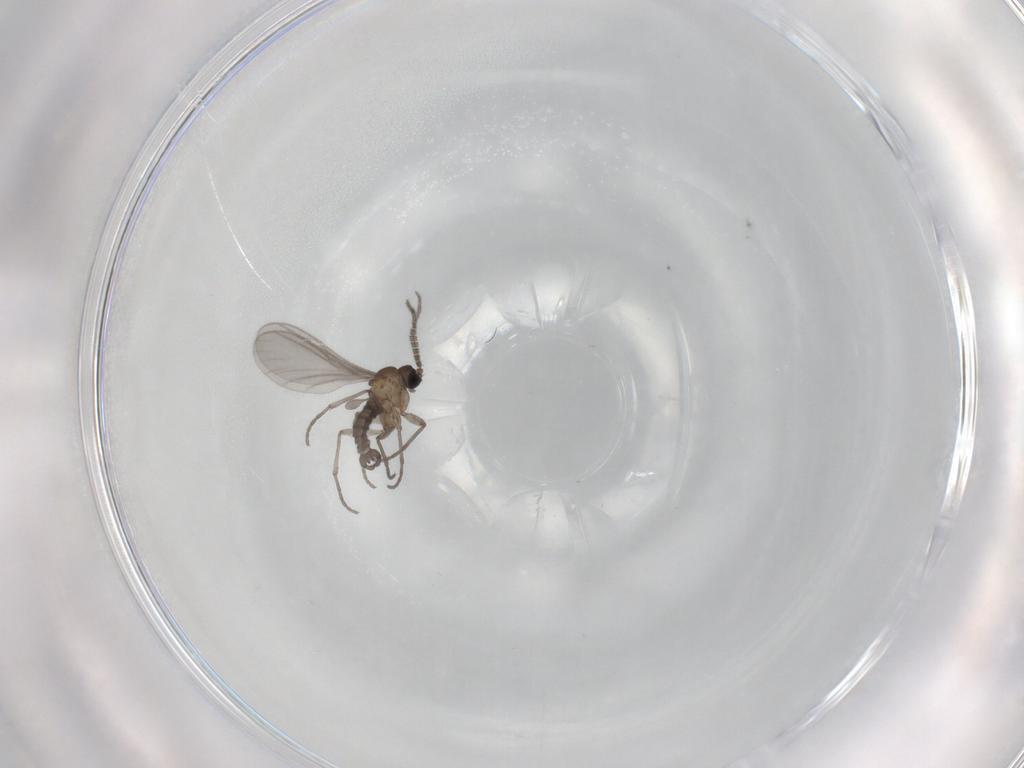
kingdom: Animalia
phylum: Arthropoda
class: Insecta
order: Diptera
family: Sciaridae
